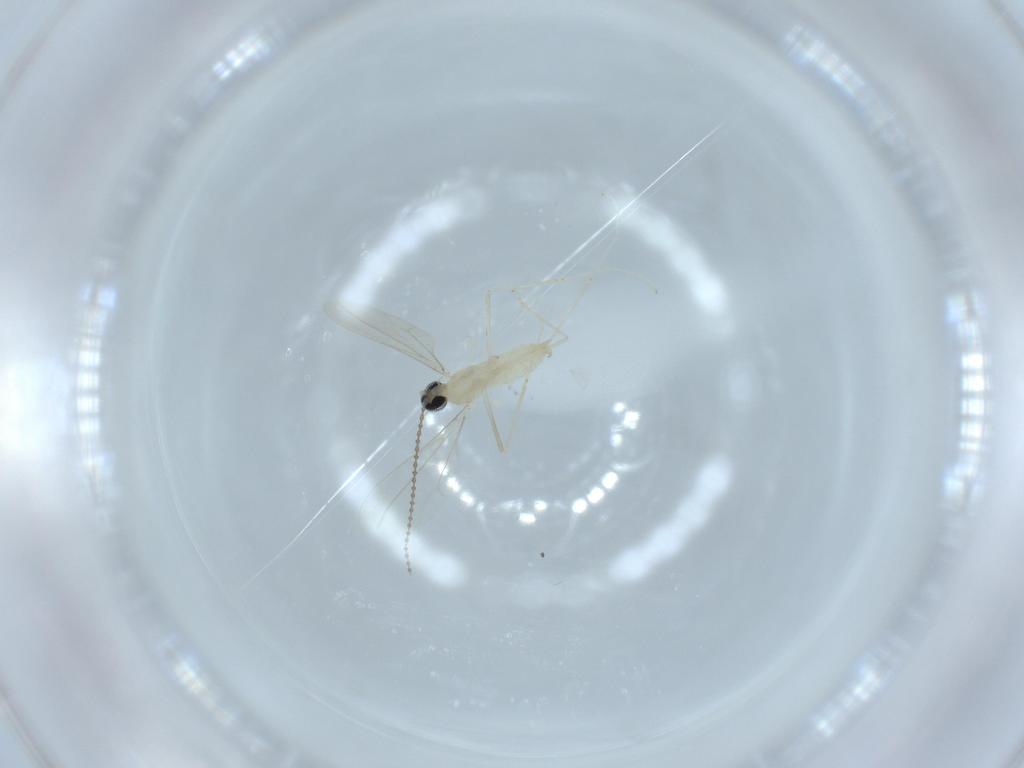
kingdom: Animalia
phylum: Arthropoda
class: Insecta
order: Diptera
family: Cecidomyiidae
